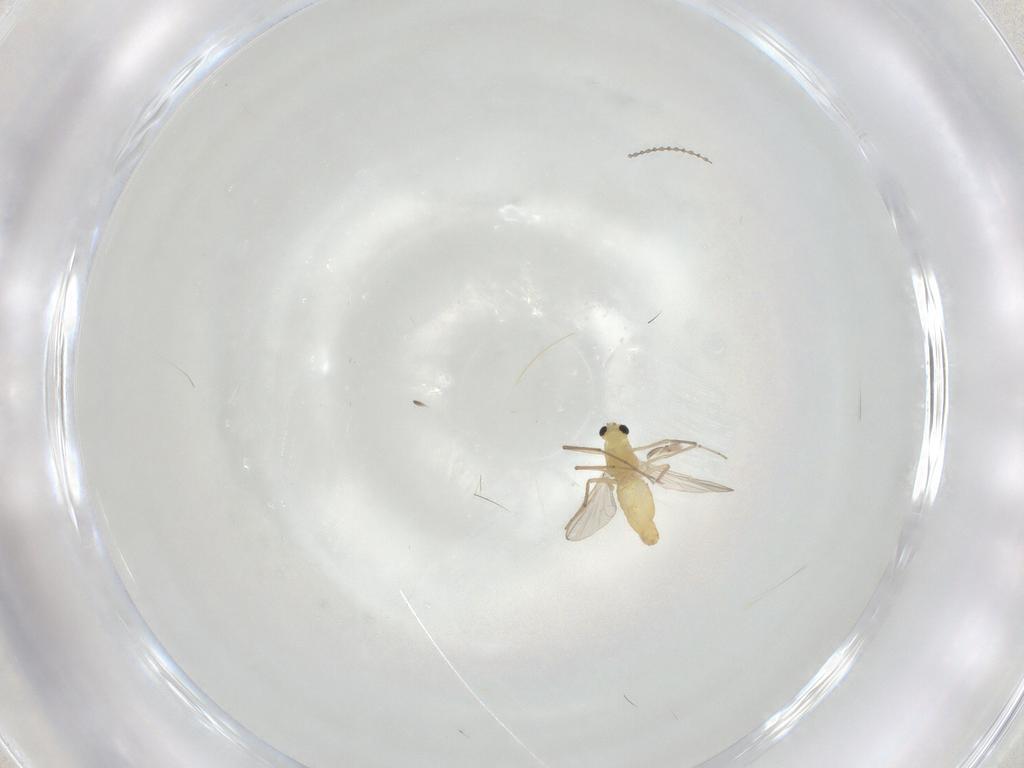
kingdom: Animalia
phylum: Arthropoda
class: Insecta
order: Diptera
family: Chironomidae
